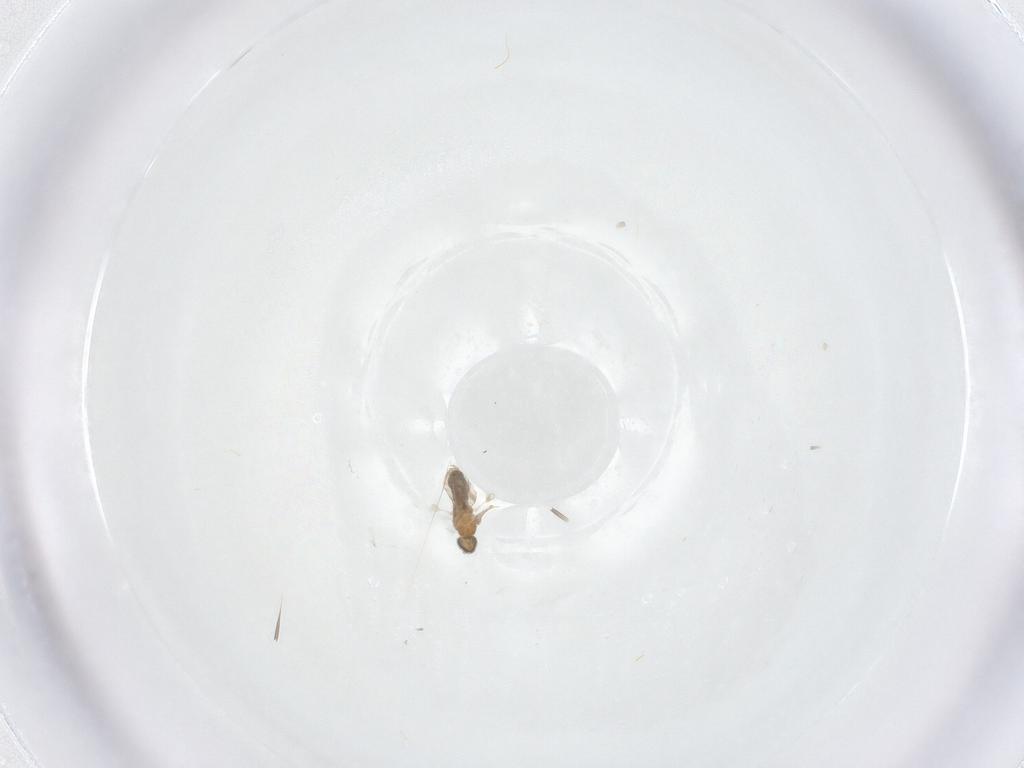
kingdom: Animalia
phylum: Arthropoda
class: Insecta
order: Diptera
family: Cecidomyiidae
